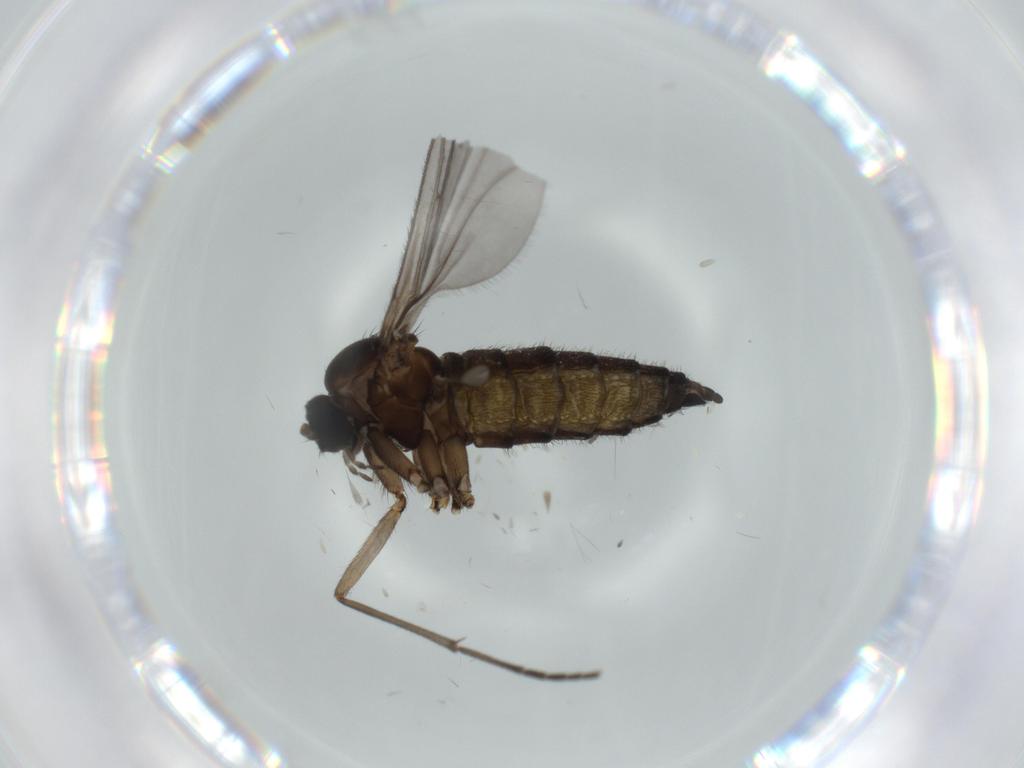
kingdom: Animalia
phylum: Arthropoda
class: Insecta
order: Diptera
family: Sciaridae
